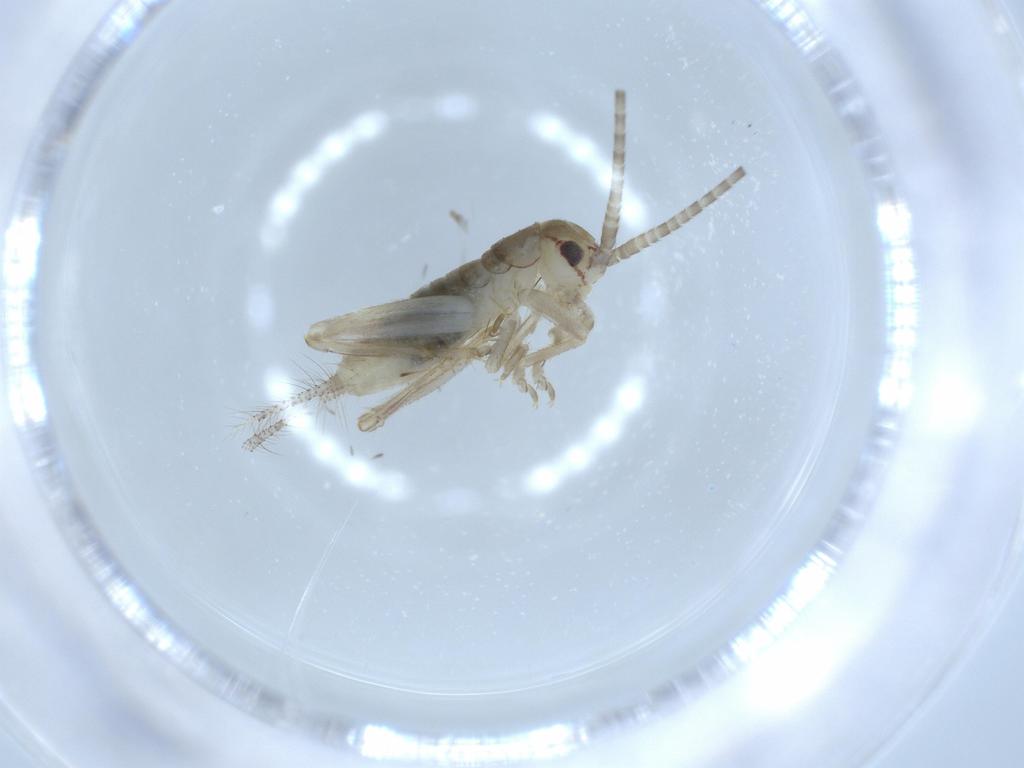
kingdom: Animalia
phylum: Arthropoda
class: Insecta
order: Orthoptera
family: Gryllidae
